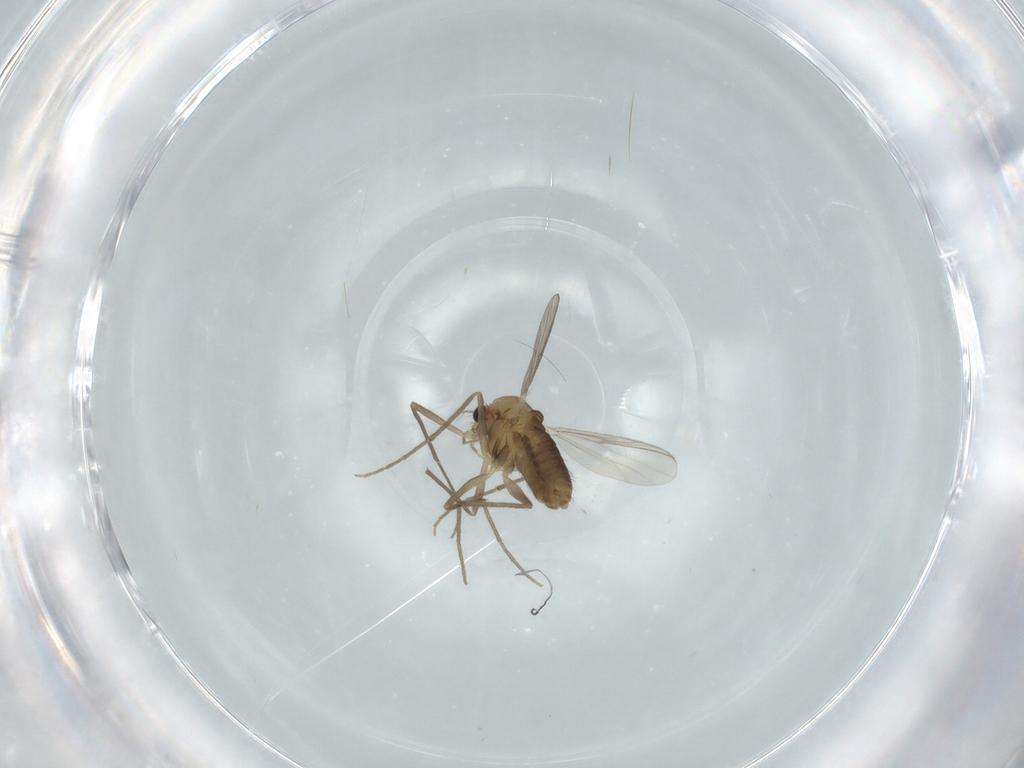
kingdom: Animalia
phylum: Arthropoda
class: Insecta
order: Diptera
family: Chironomidae
